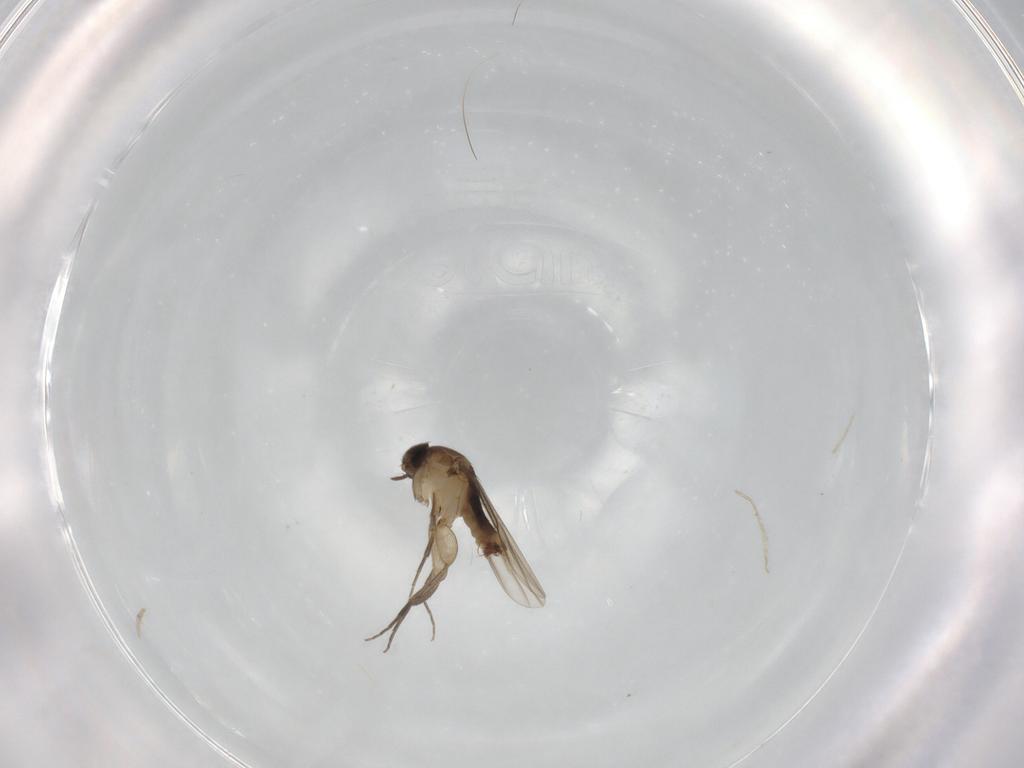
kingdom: Animalia
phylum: Arthropoda
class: Insecta
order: Diptera
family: Phoridae
